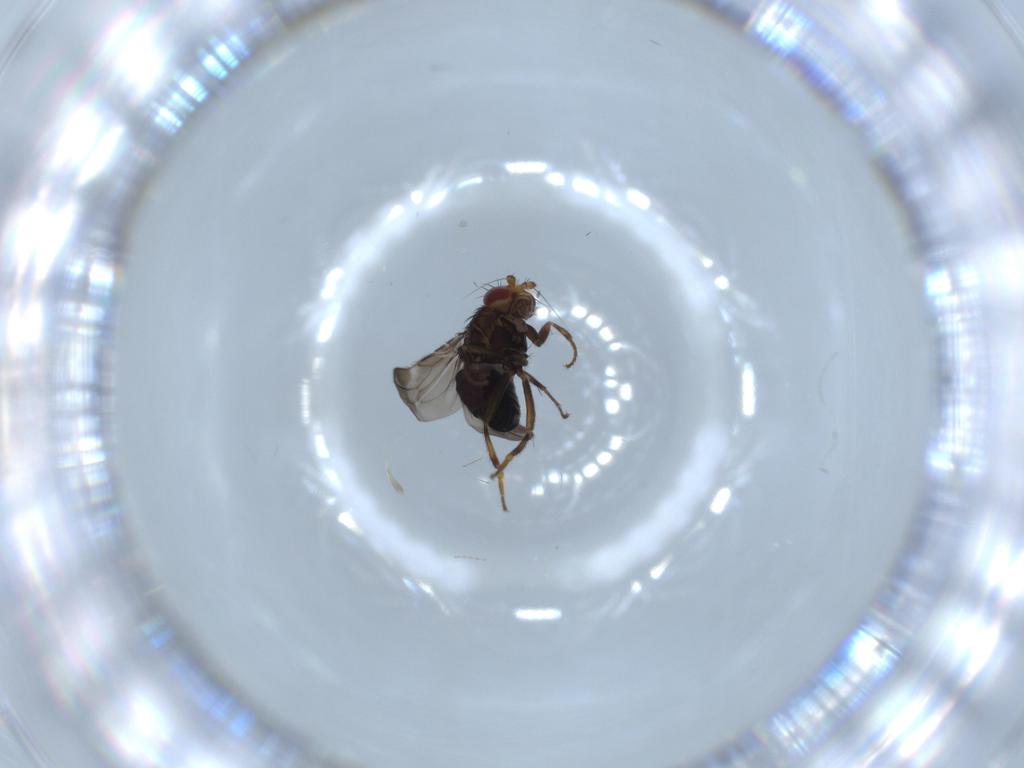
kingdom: Animalia
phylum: Arthropoda
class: Insecta
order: Diptera
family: Sphaeroceridae
